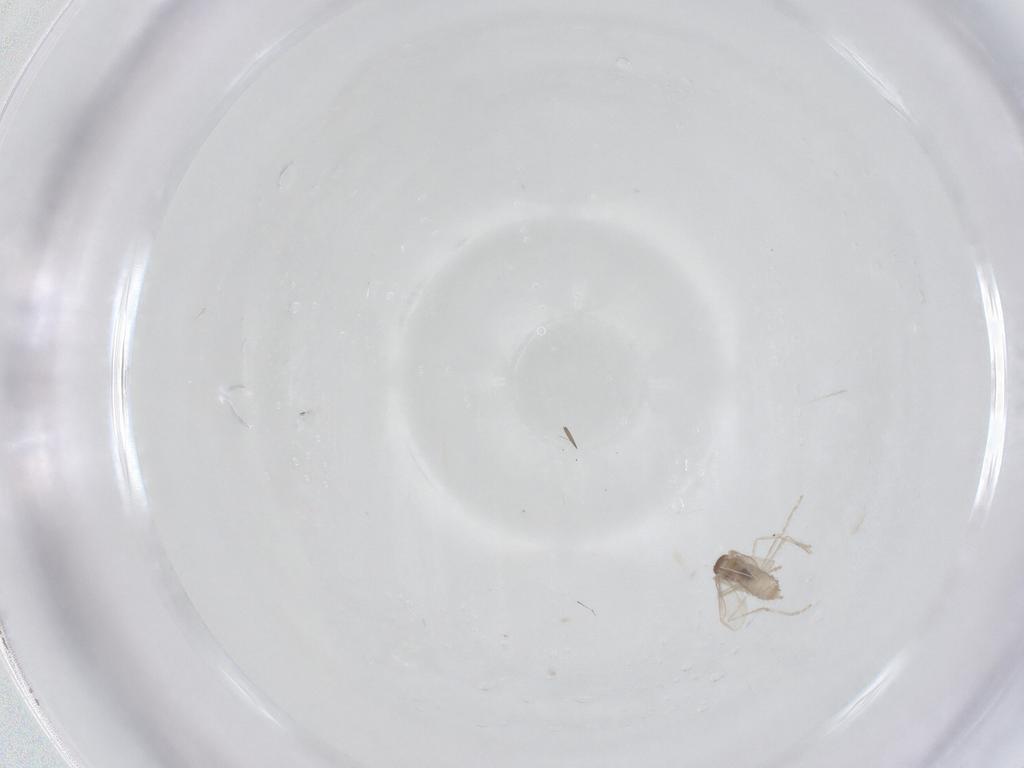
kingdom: Animalia
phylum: Arthropoda
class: Insecta
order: Diptera
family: Cecidomyiidae
